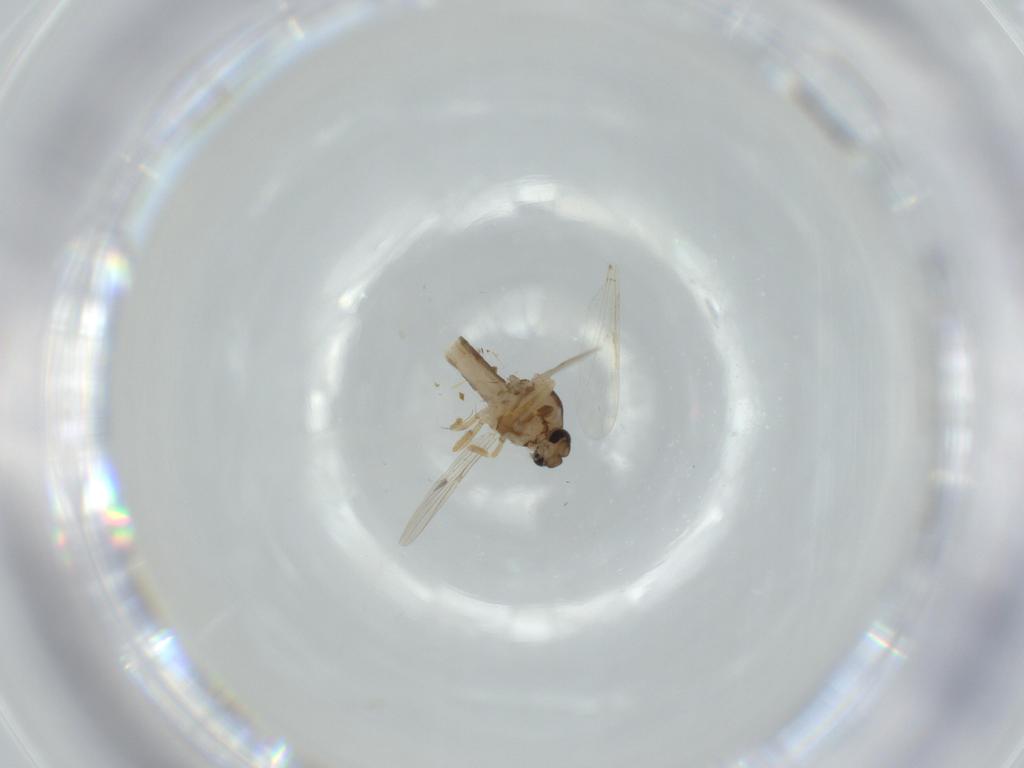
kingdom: Animalia
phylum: Arthropoda
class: Insecta
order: Diptera
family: Ceratopogonidae
